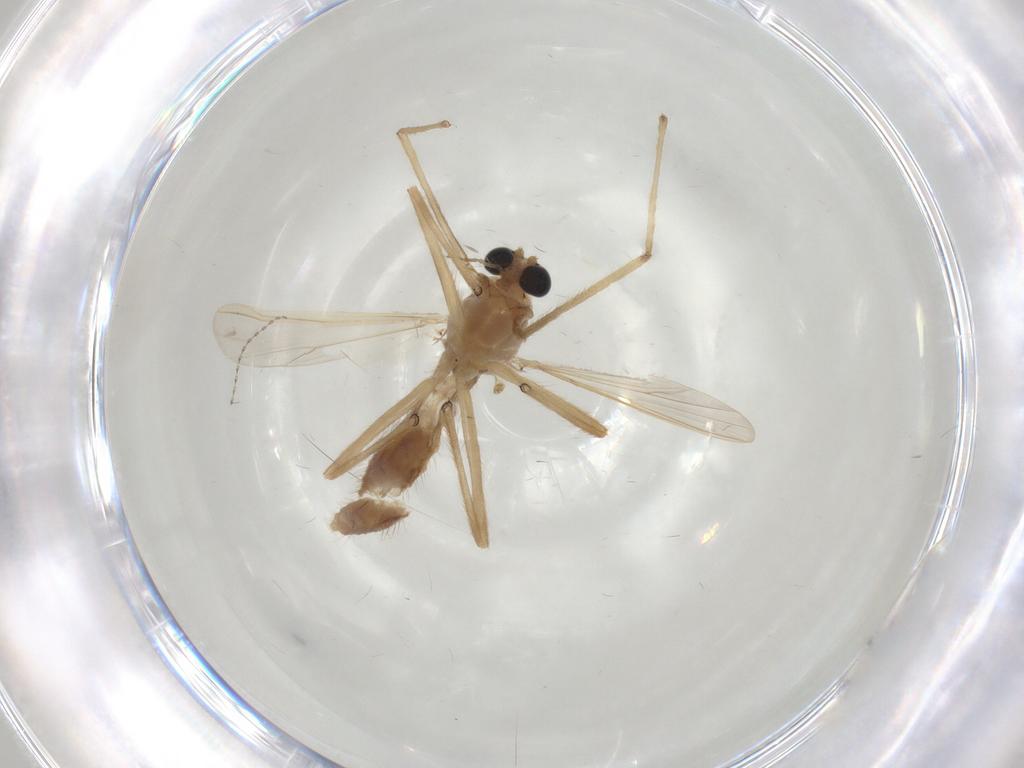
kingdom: Animalia
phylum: Arthropoda
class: Insecta
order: Diptera
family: Chironomidae
